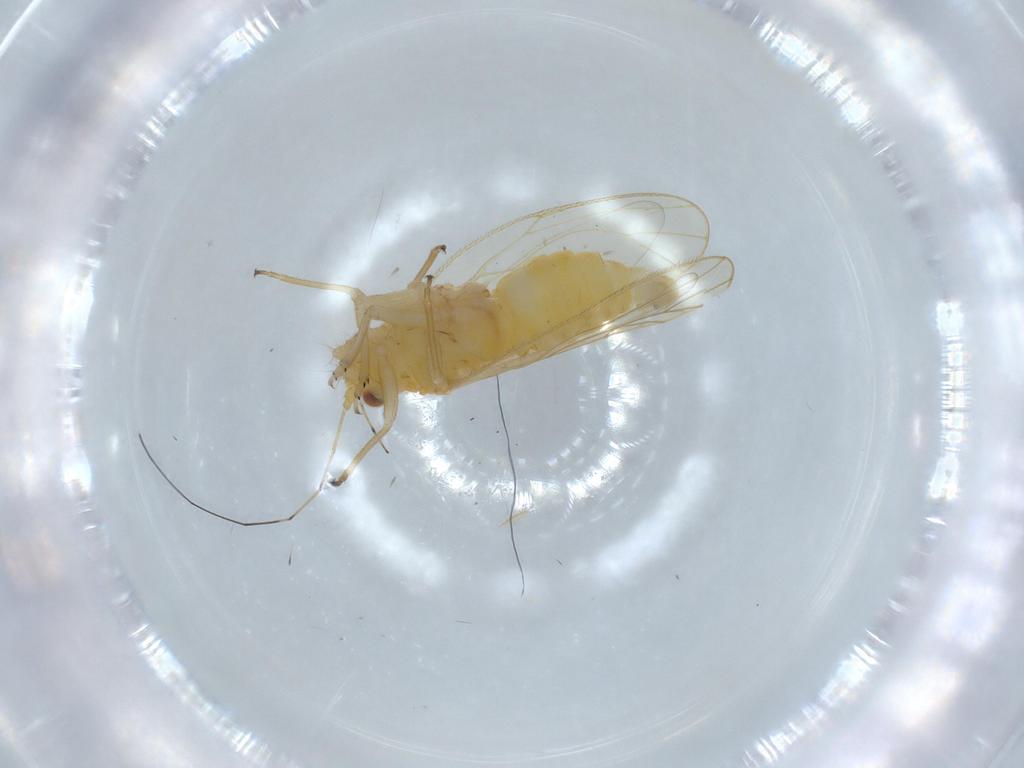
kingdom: Animalia
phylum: Arthropoda
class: Insecta
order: Hemiptera
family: Psyllidae
